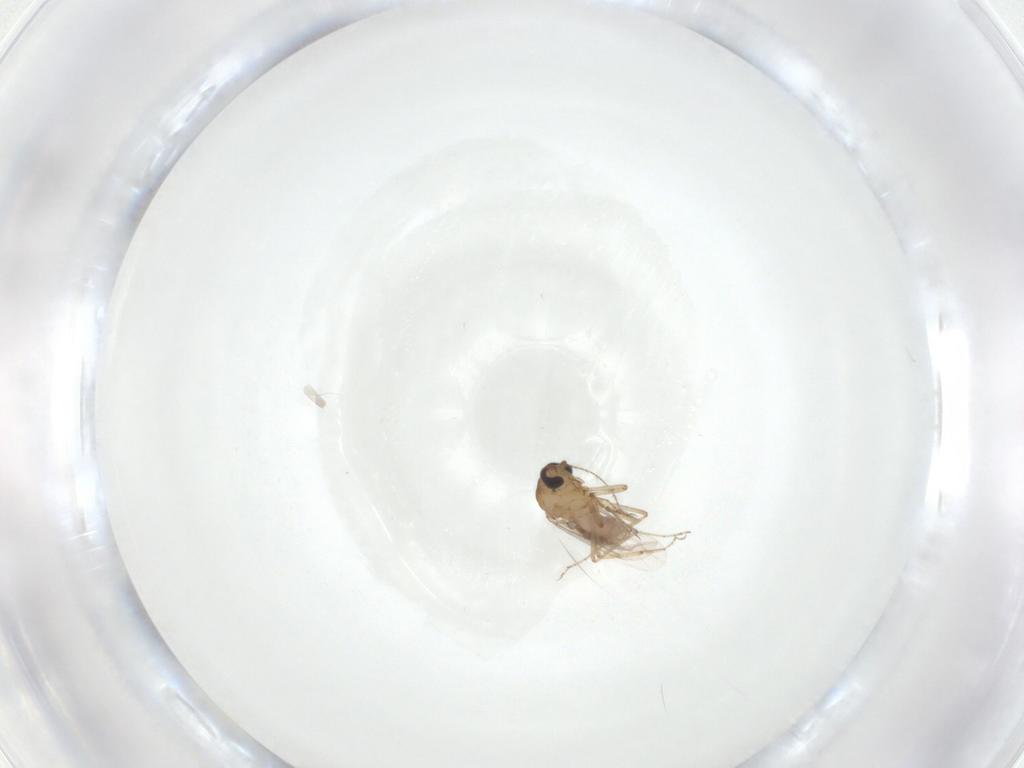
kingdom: Animalia
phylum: Arthropoda
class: Insecta
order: Diptera
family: Ceratopogonidae
